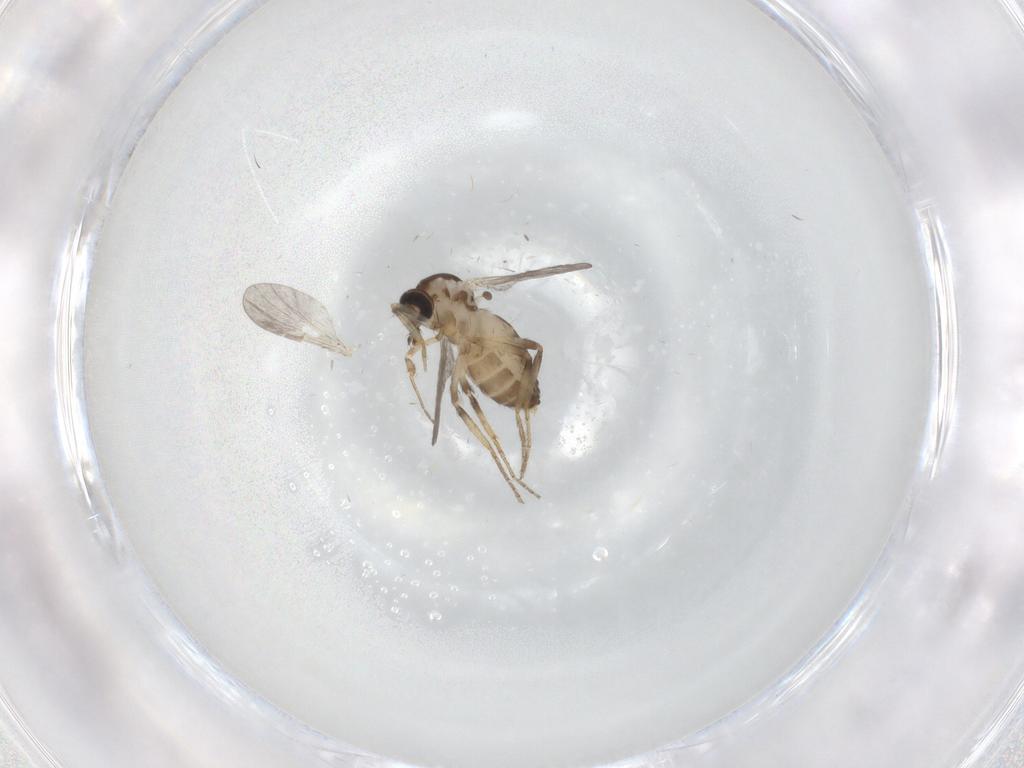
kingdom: Animalia
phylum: Arthropoda
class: Insecta
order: Diptera
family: Ceratopogonidae
